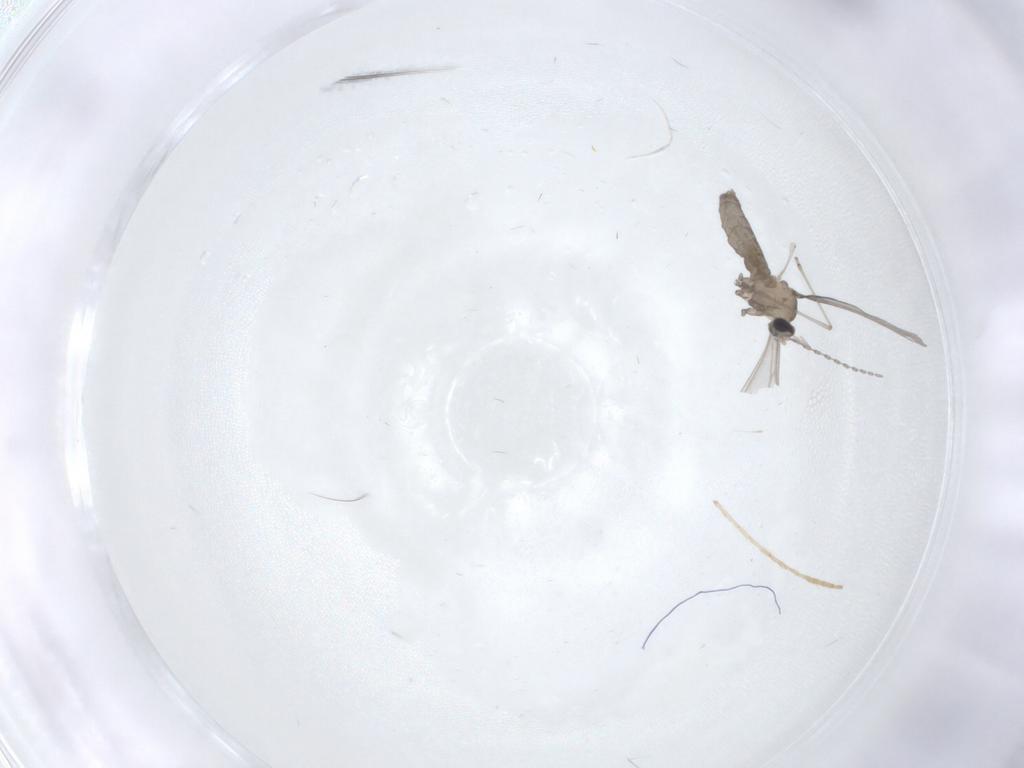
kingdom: Animalia
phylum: Arthropoda
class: Insecta
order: Diptera
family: Cecidomyiidae
